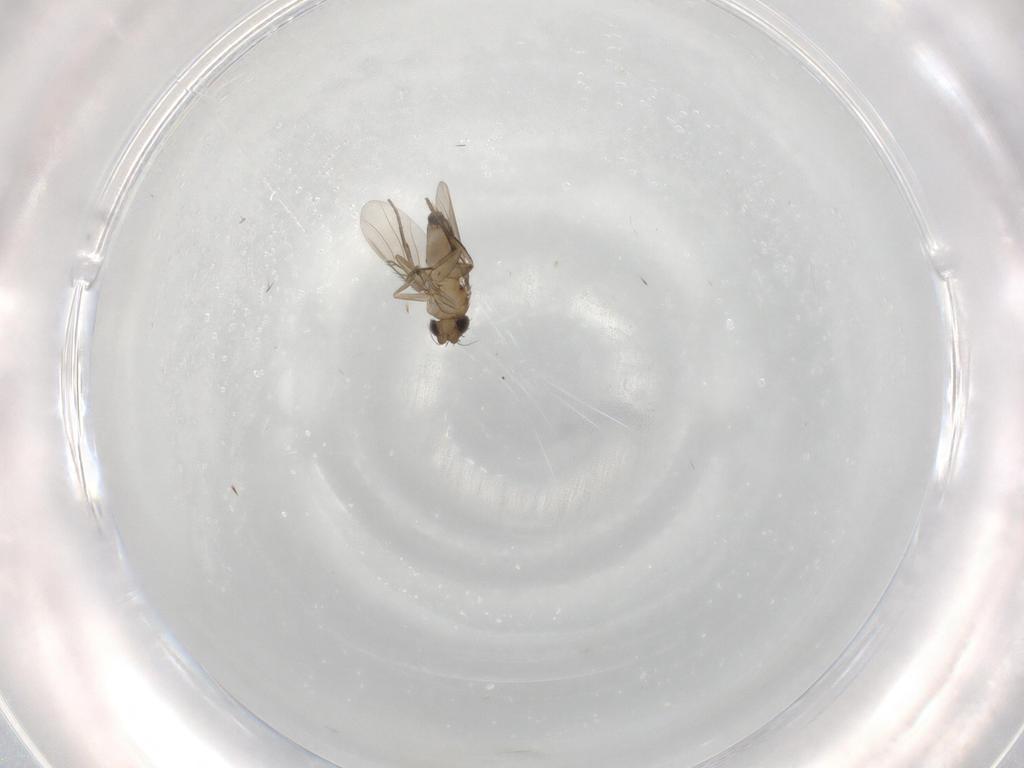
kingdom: Animalia
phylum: Arthropoda
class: Insecta
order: Diptera
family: Phoridae
